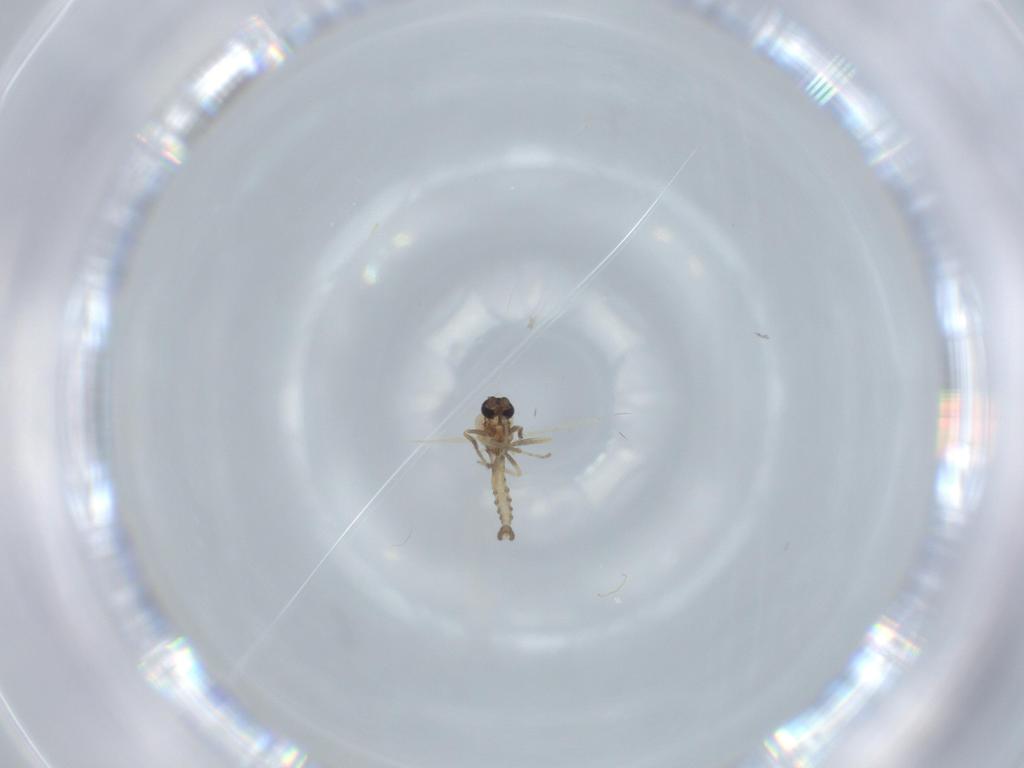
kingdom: Animalia
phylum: Arthropoda
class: Insecta
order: Diptera
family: Ceratopogonidae
